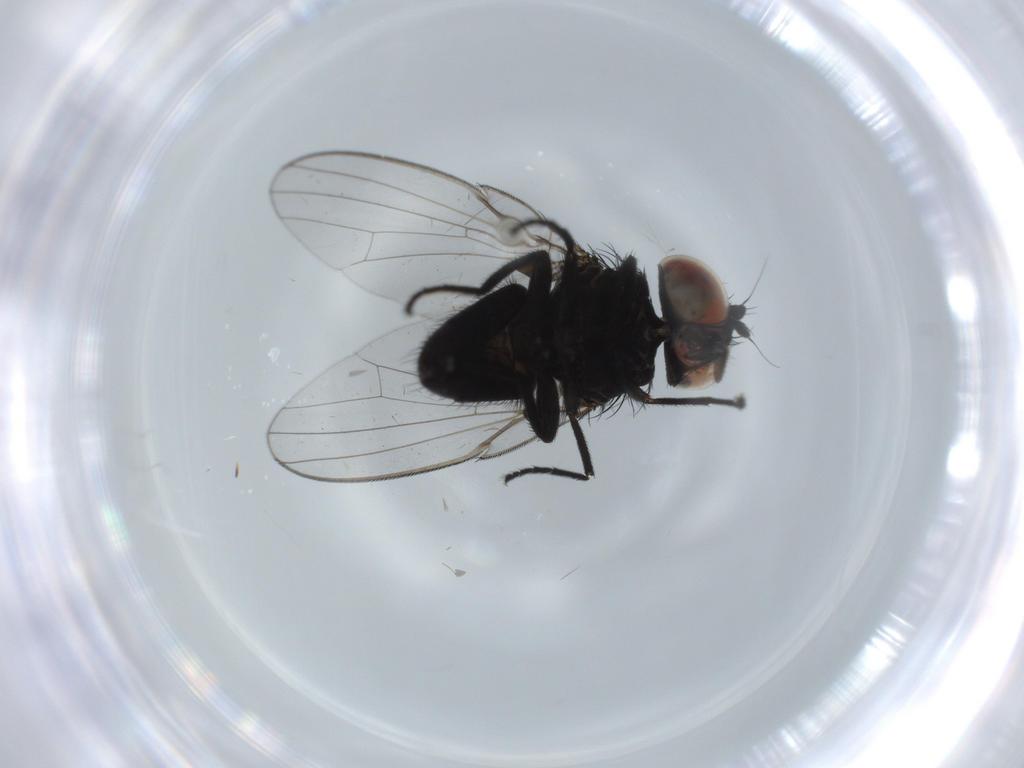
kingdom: Animalia
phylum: Arthropoda
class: Insecta
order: Diptera
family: Milichiidae
